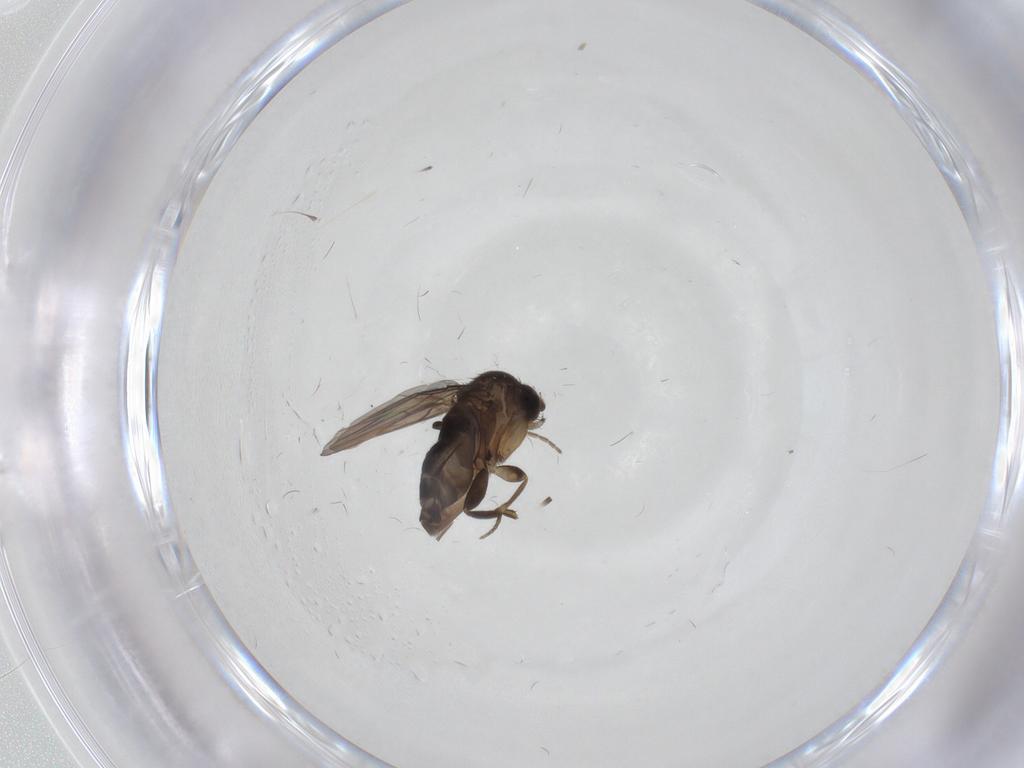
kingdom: Animalia
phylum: Arthropoda
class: Insecta
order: Diptera
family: Phoridae
